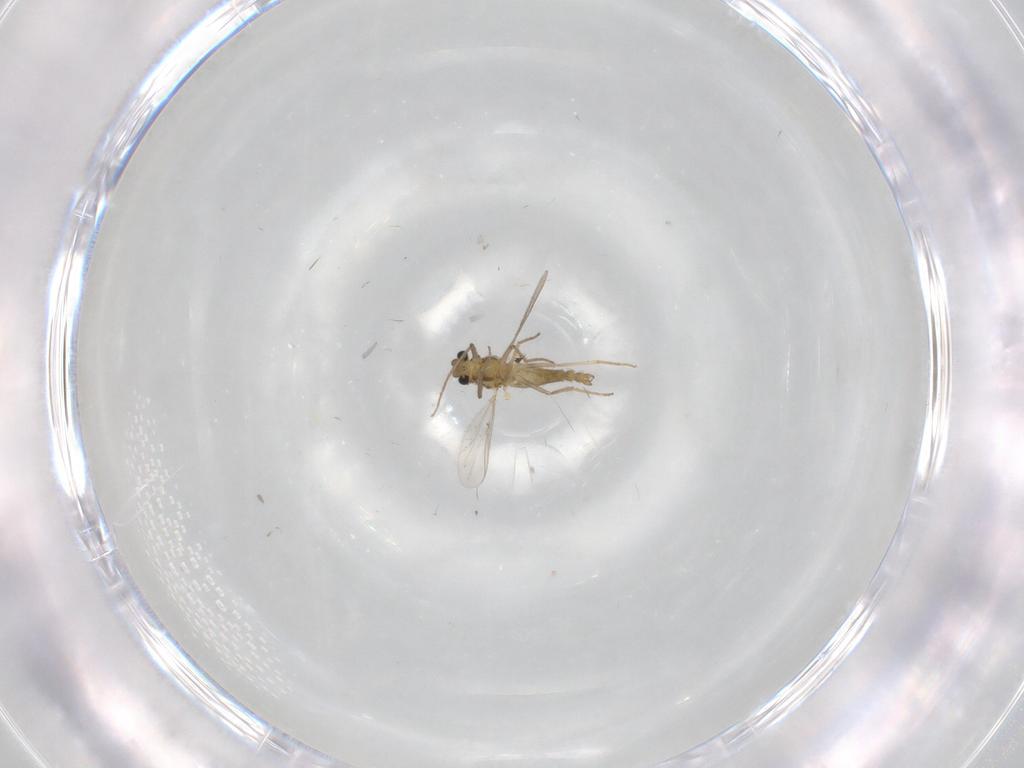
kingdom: Animalia
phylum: Arthropoda
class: Insecta
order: Diptera
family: Chironomidae
